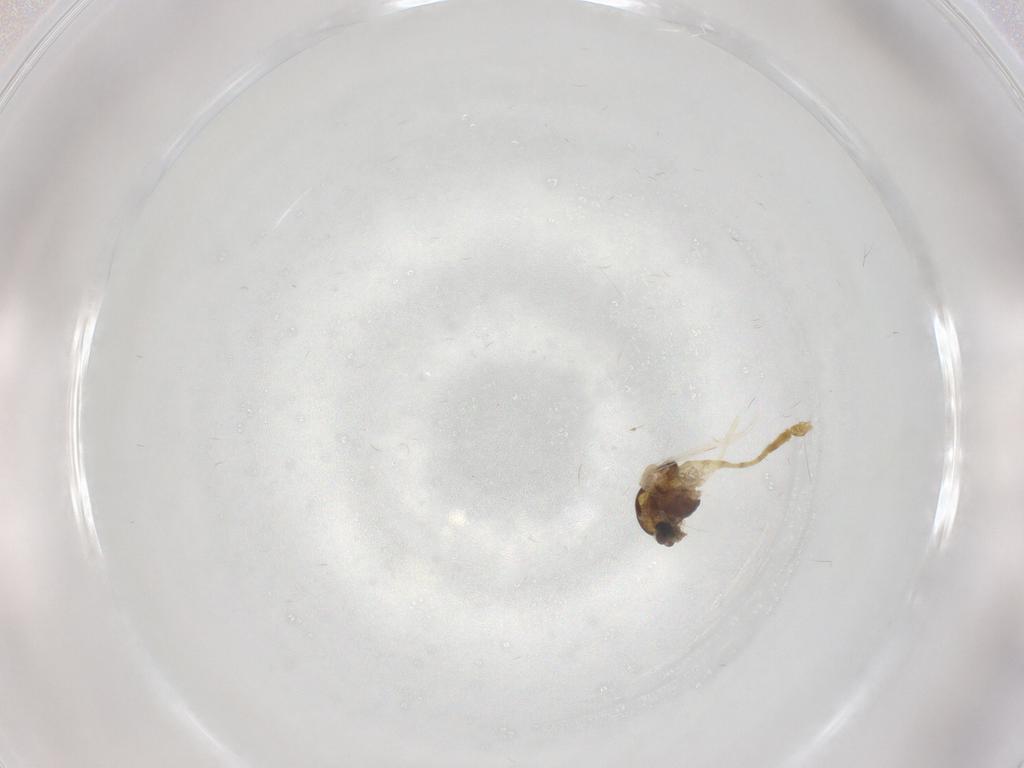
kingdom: Animalia
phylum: Arthropoda
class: Insecta
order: Diptera
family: Chironomidae
